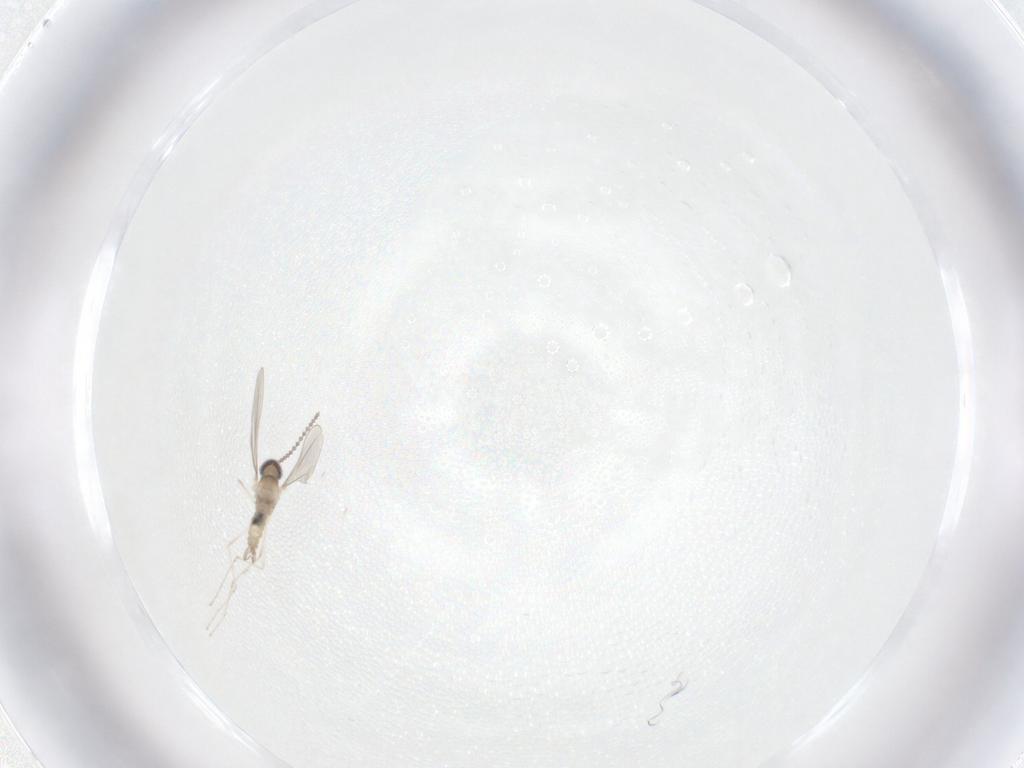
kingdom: Animalia
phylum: Arthropoda
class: Insecta
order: Diptera
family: Cecidomyiidae
